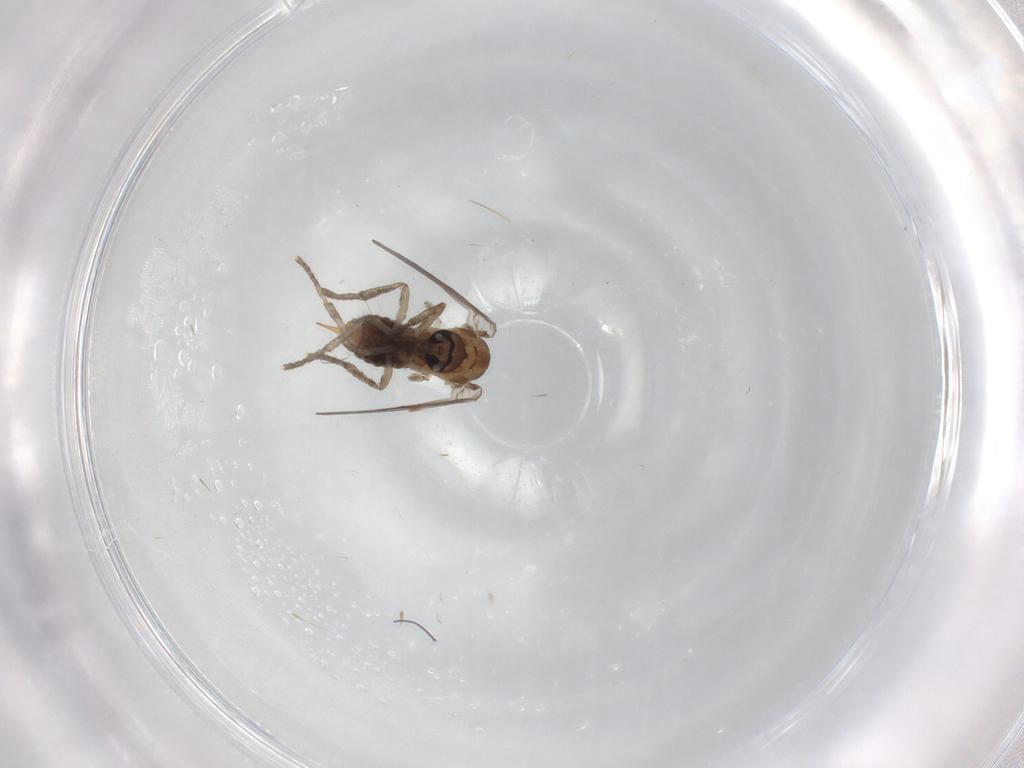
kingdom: Animalia
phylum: Arthropoda
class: Insecta
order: Diptera
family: Psychodidae
